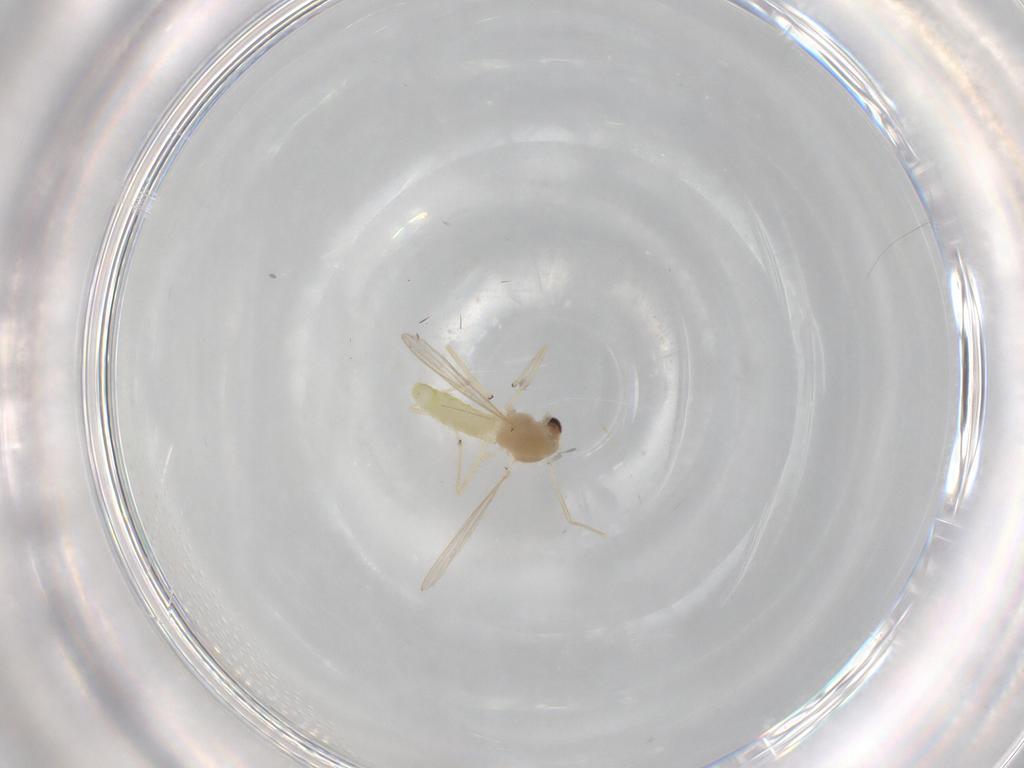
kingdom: Animalia
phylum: Arthropoda
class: Insecta
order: Diptera
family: Chironomidae
